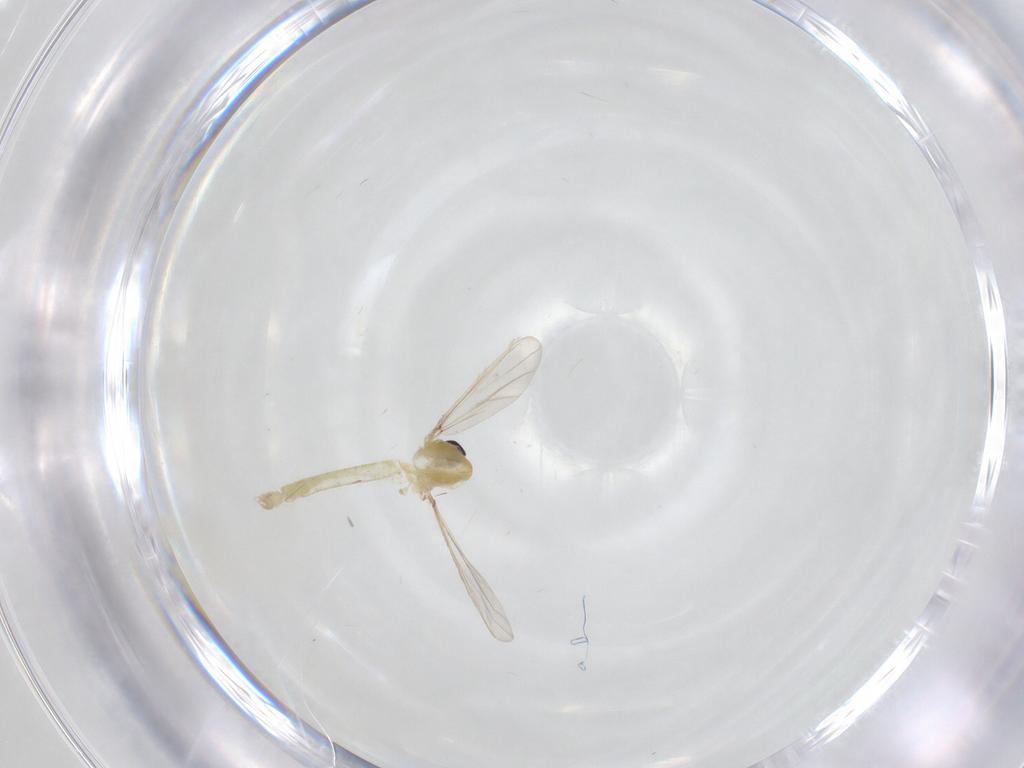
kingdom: Animalia
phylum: Arthropoda
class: Insecta
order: Diptera
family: Chironomidae
